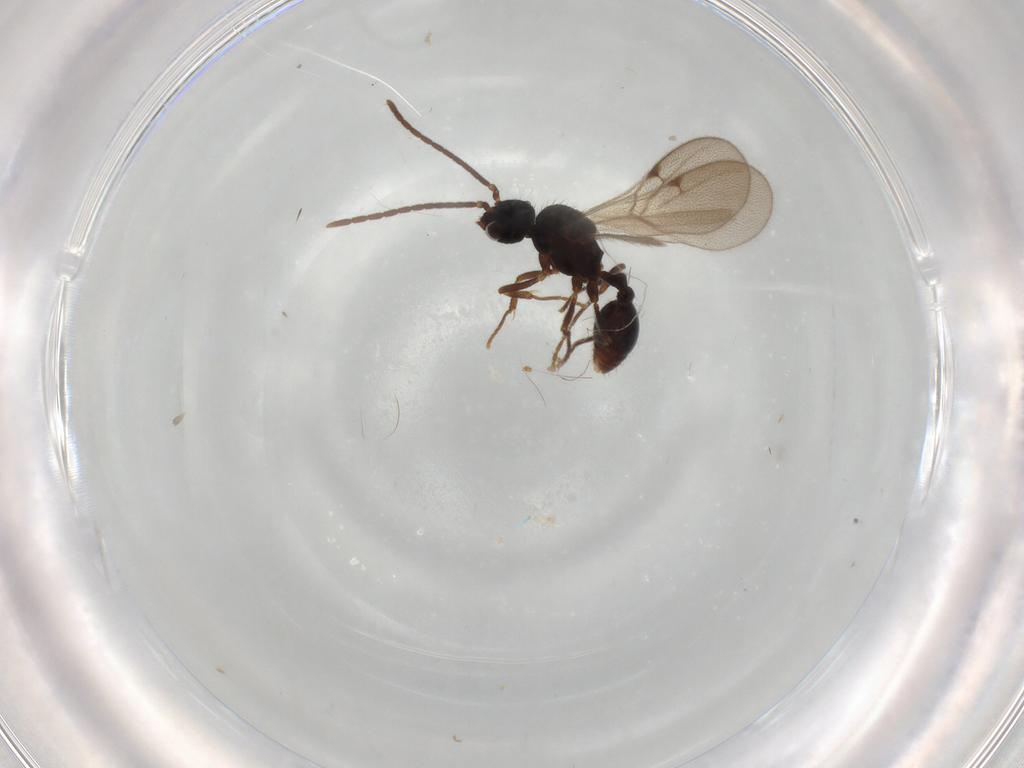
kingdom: Animalia
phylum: Arthropoda
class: Insecta
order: Hymenoptera
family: Formicidae
